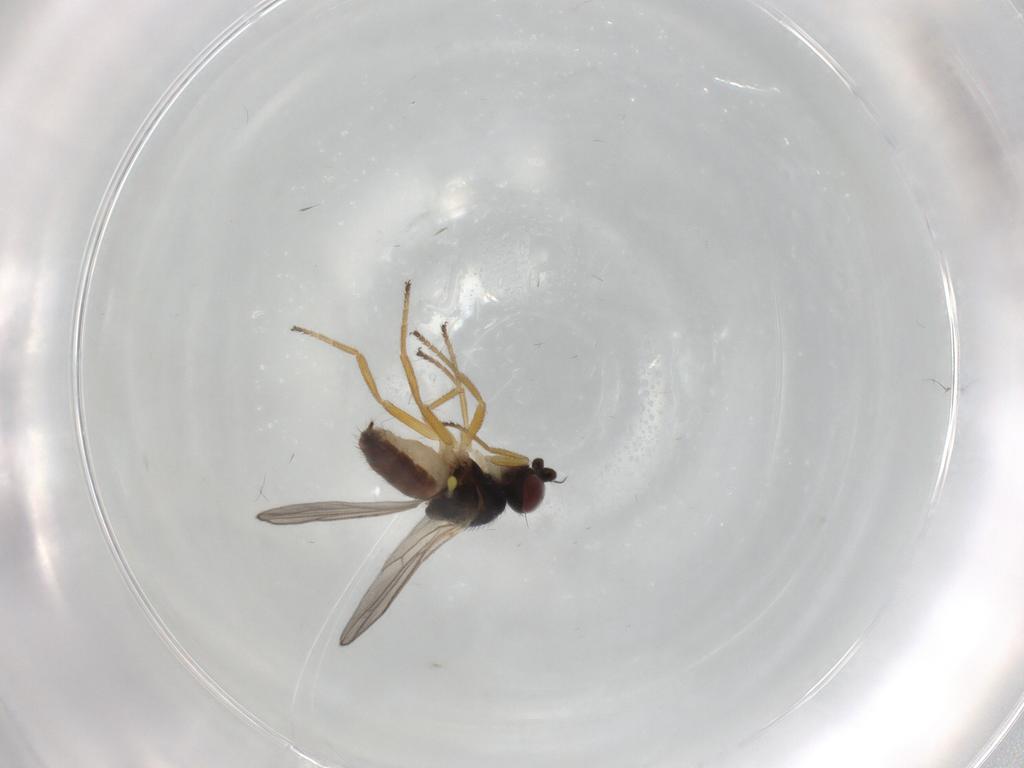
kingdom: Animalia
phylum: Arthropoda
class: Insecta
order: Diptera
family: Chloropidae
